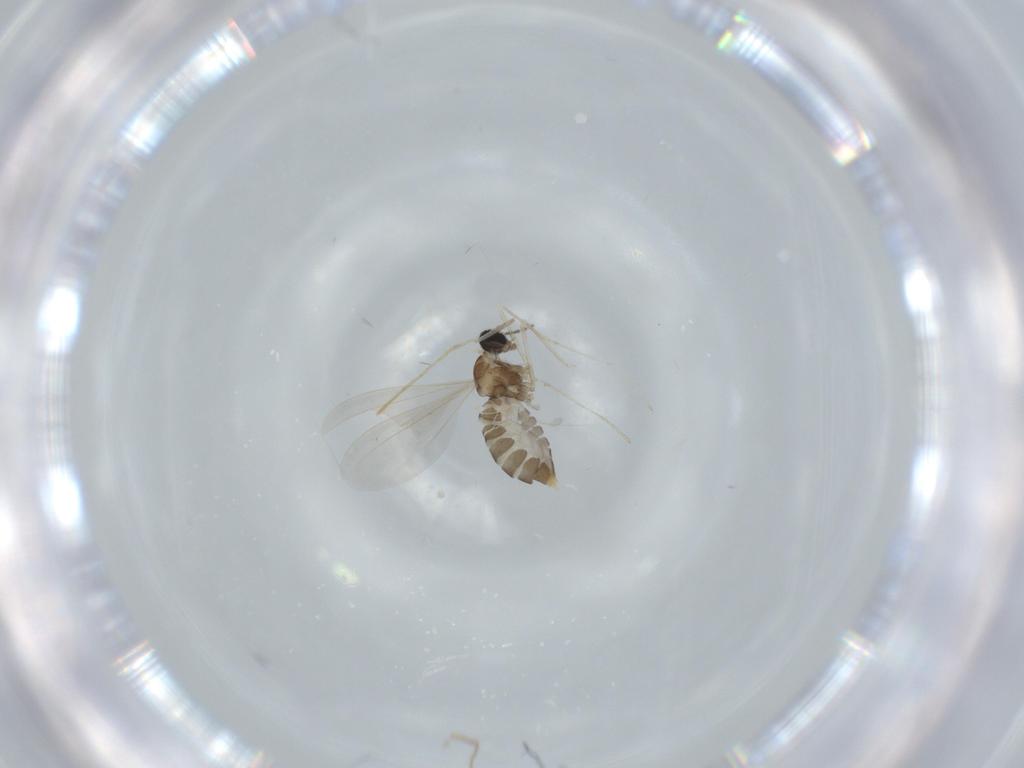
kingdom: Animalia
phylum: Arthropoda
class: Insecta
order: Diptera
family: Cecidomyiidae
